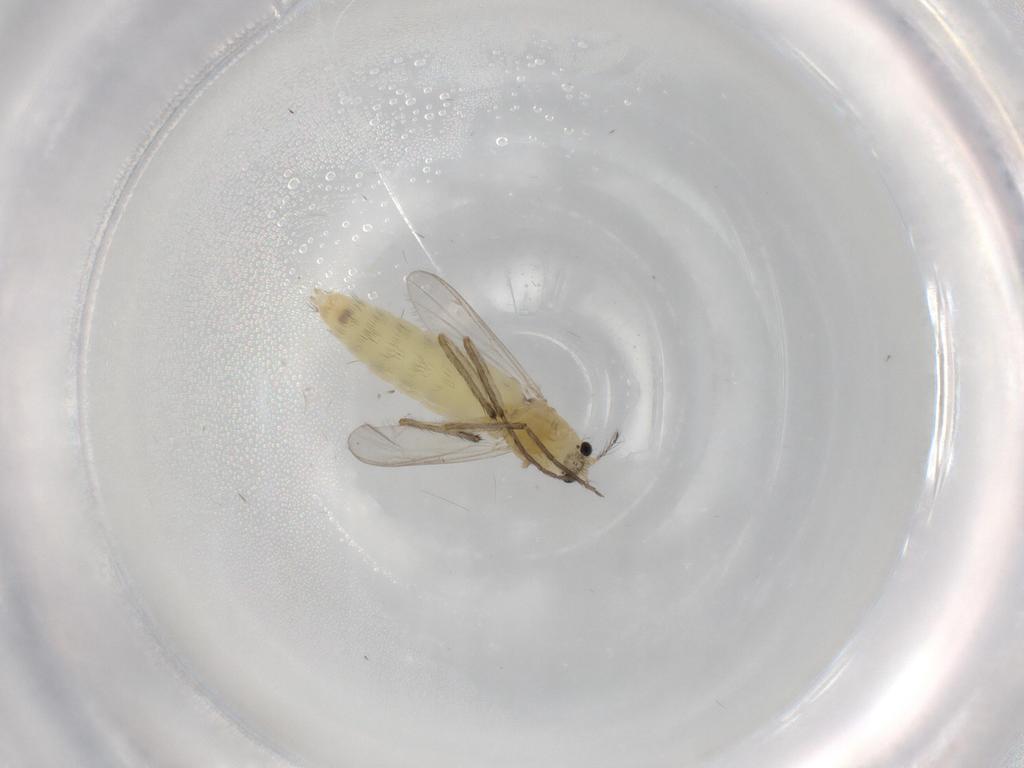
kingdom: Animalia
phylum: Arthropoda
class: Insecta
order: Diptera
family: Chironomidae
